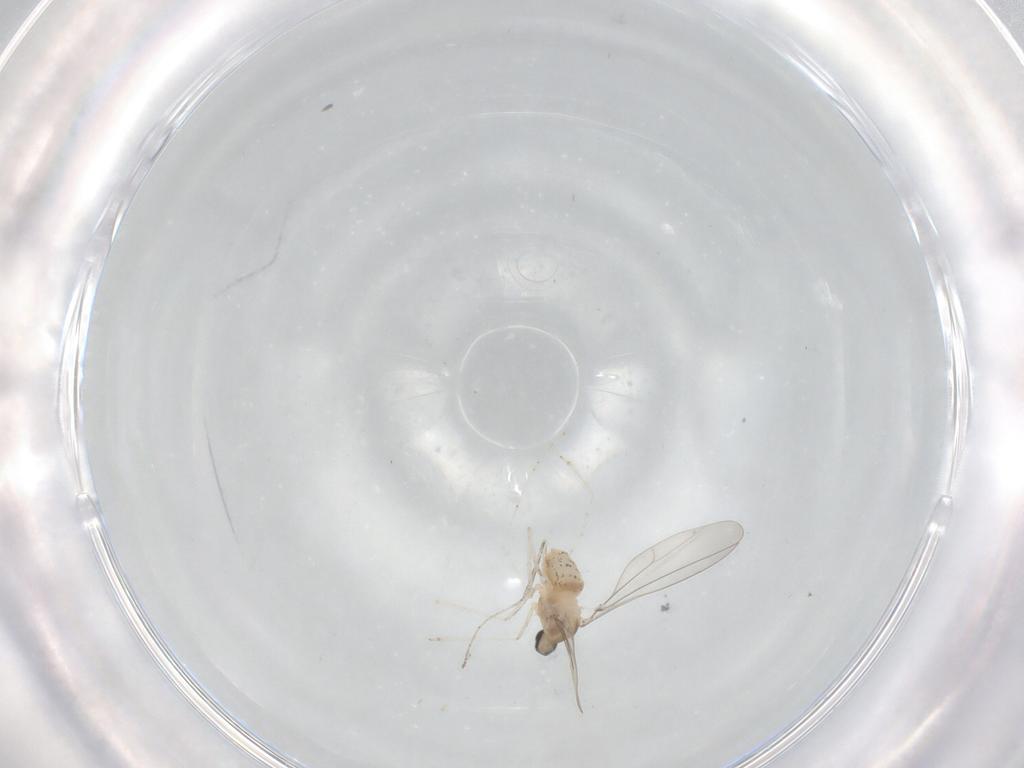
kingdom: Animalia
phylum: Arthropoda
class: Insecta
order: Diptera
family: Cecidomyiidae
